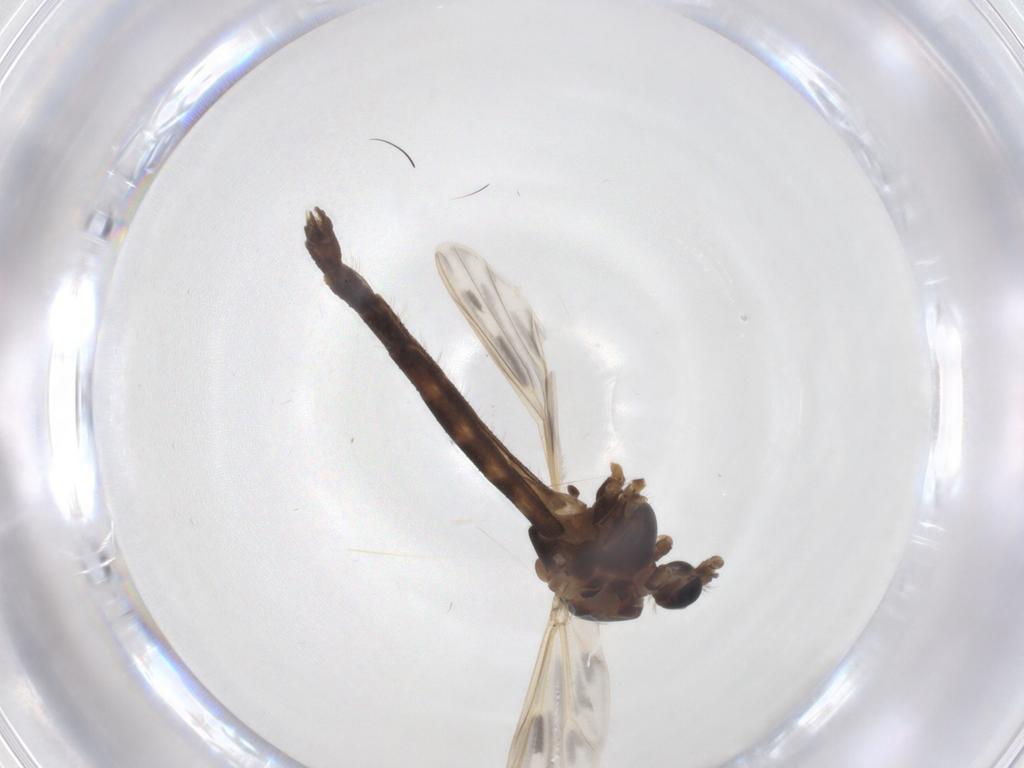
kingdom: Animalia
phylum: Arthropoda
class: Insecta
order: Diptera
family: Chironomidae
